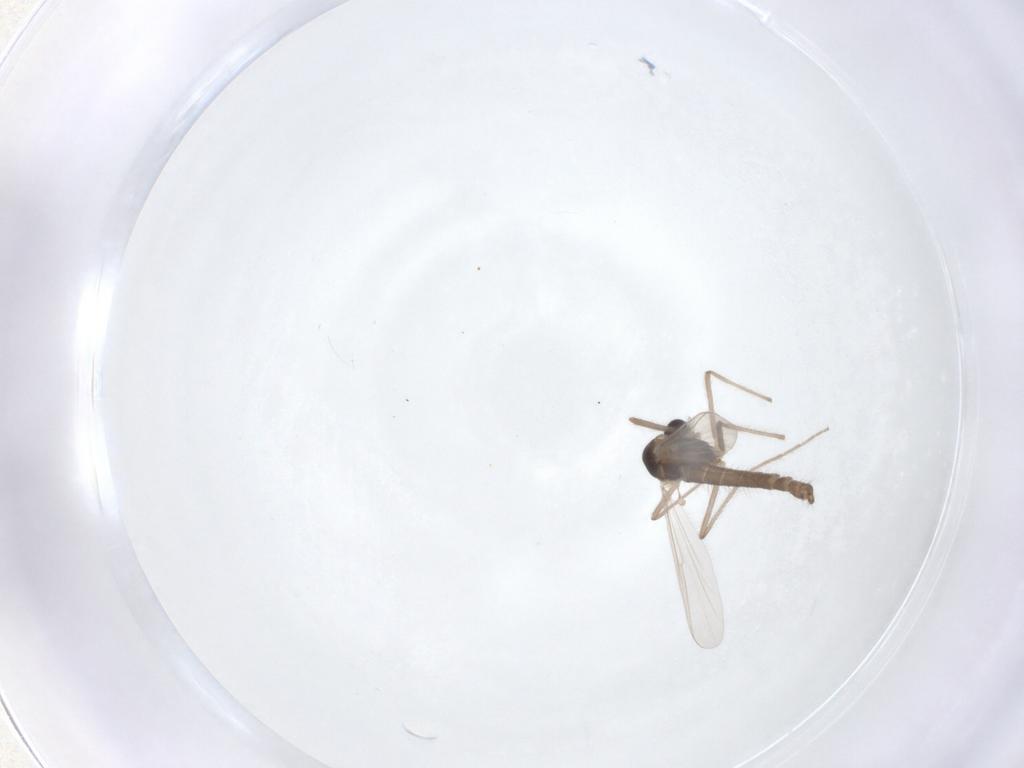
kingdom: Animalia
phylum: Arthropoda
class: Insecta
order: Diptera
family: Chironomidae
